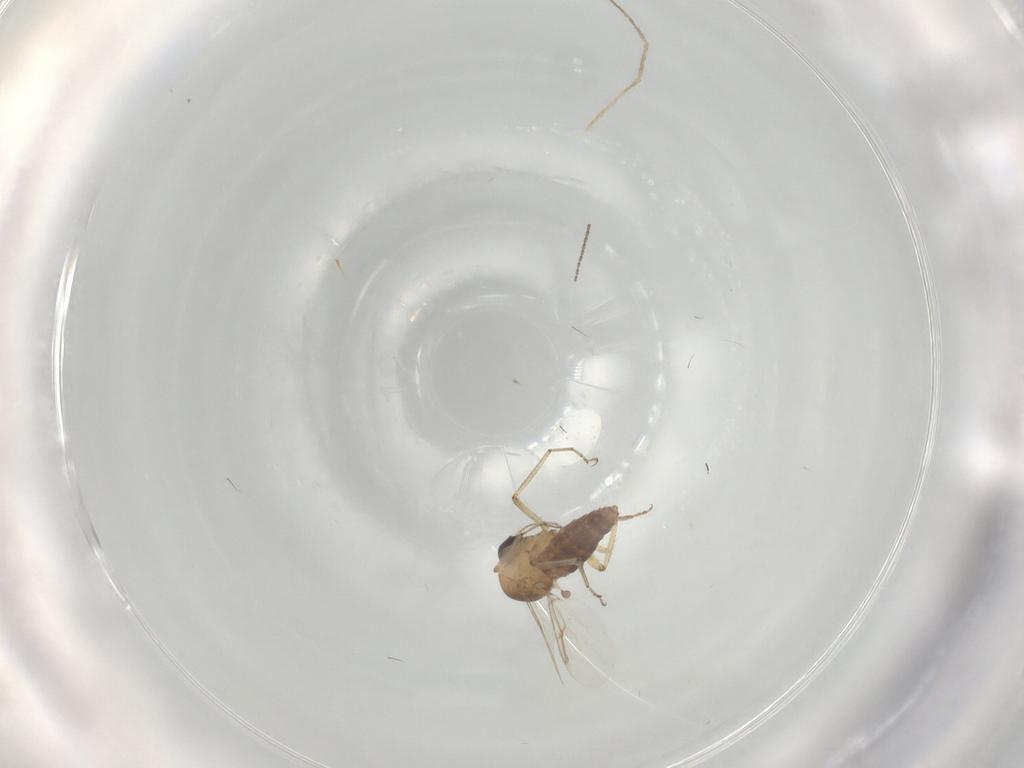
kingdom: Animalia
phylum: Arthropoda
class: Insecta
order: Diptera
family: Ceratopogonidae
